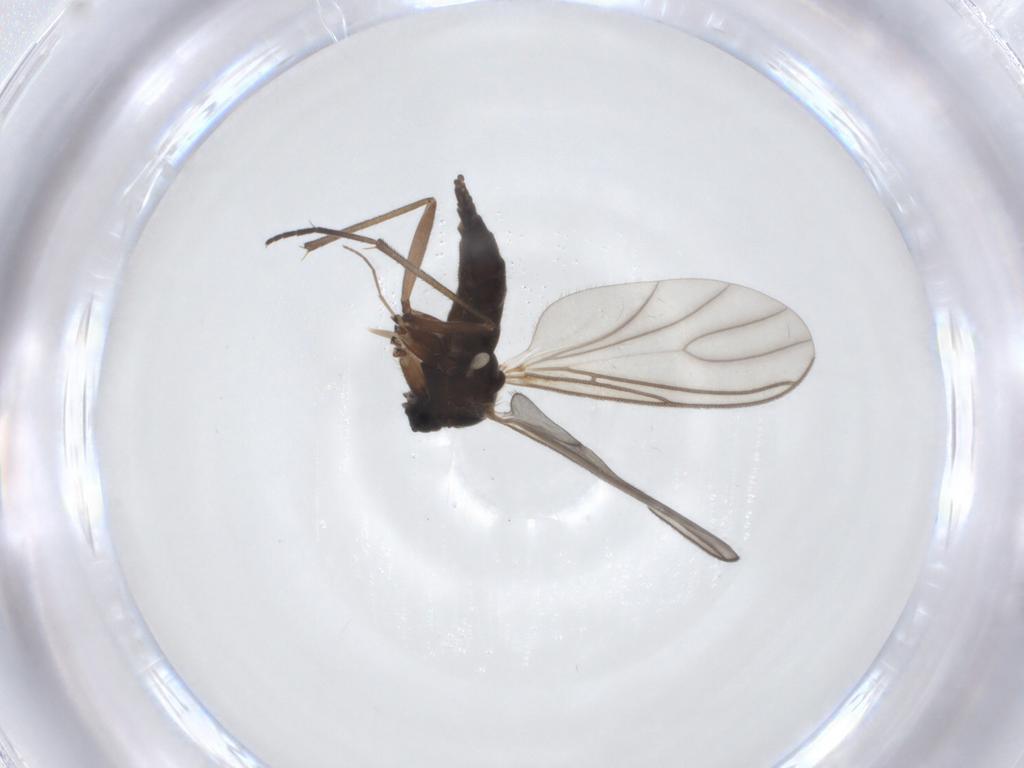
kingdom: Animalia
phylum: Arthropoda
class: Insecta
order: Diptera
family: Sciaridae
